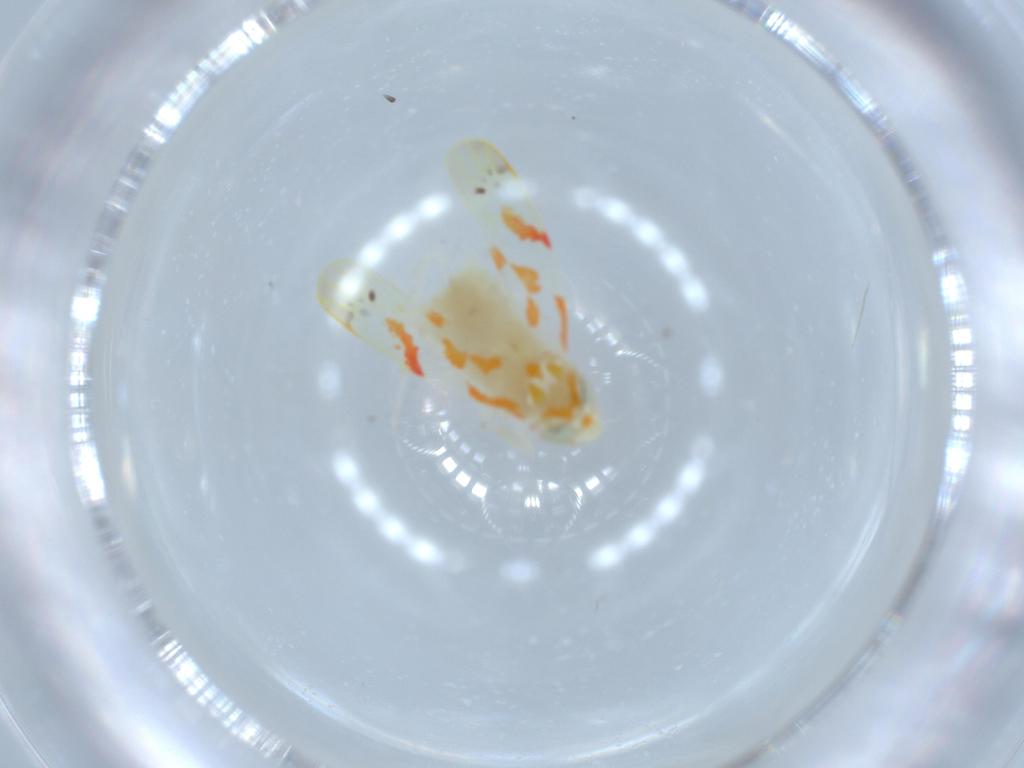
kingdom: Animalia
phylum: Arthropoda
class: Insecta
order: Hemiptera
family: Cicadellidae
